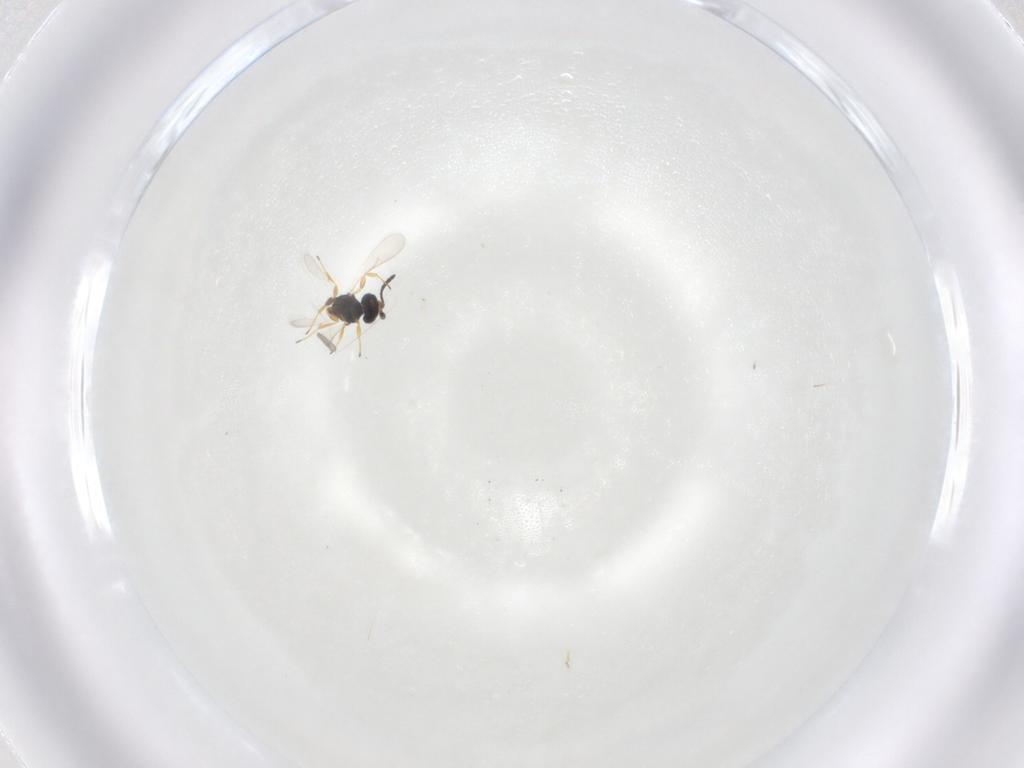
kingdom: Animalia
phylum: Arthropoda
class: Insecta
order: Hymenoptera
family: Scelionidae
